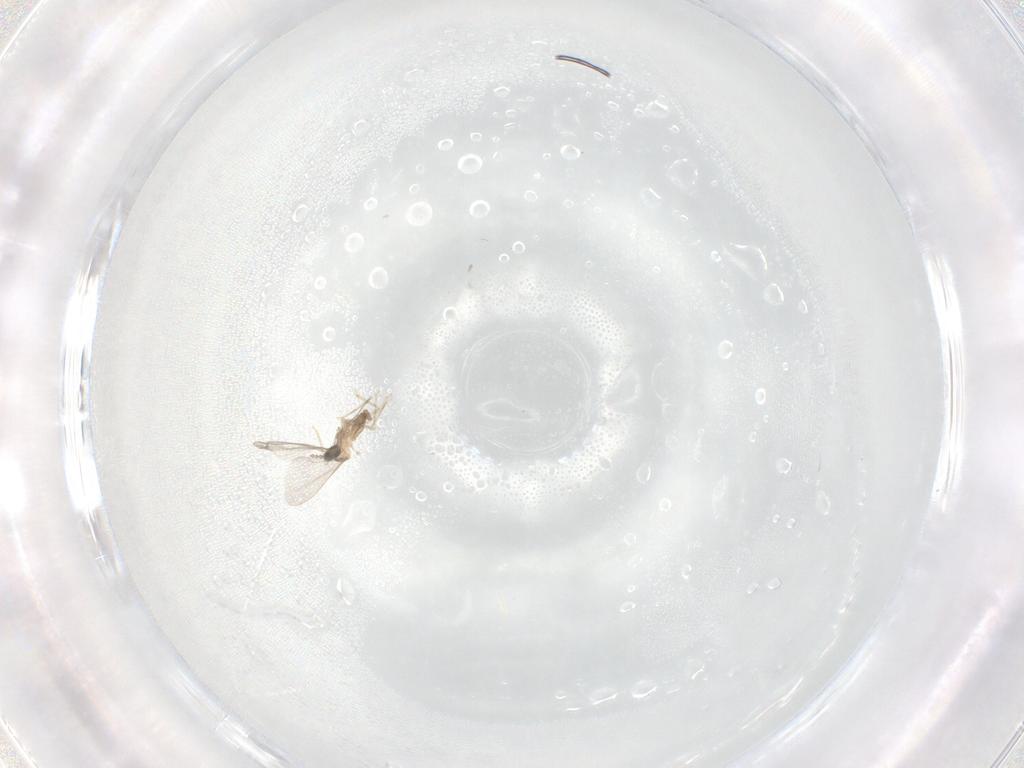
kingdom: Animalia
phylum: Arthropoda
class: Insecta
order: Diptera
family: Cecidomyiidae
